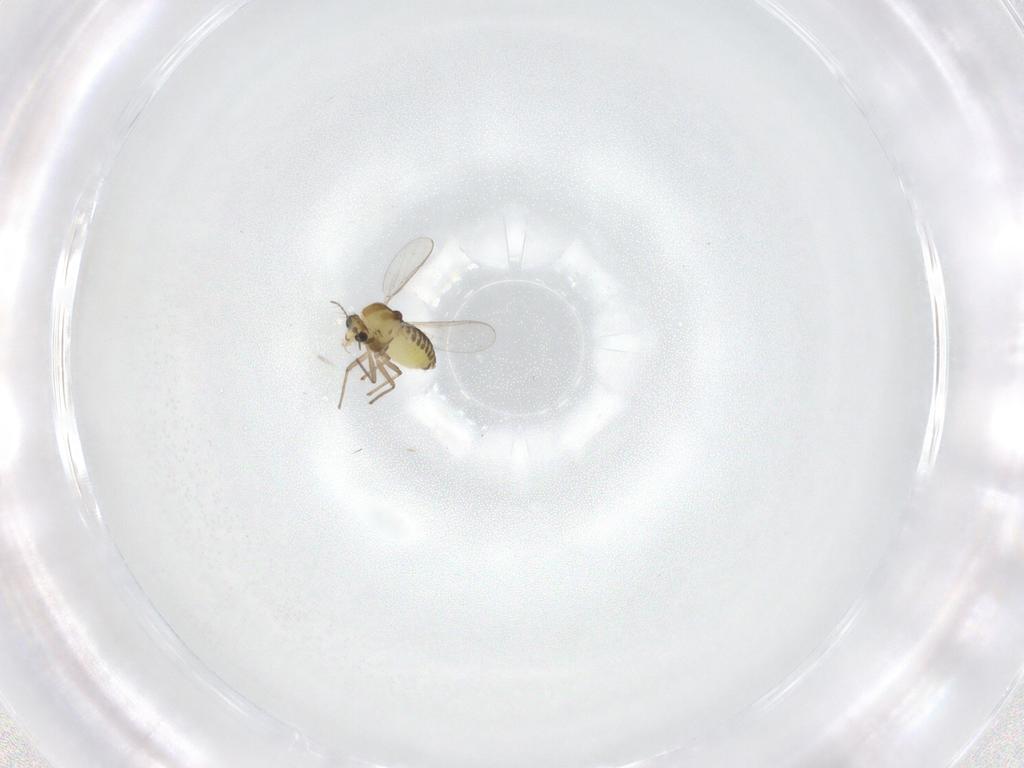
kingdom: Animalia
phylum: Arthropoda
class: Insecta
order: Diptera
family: Chironomidae
